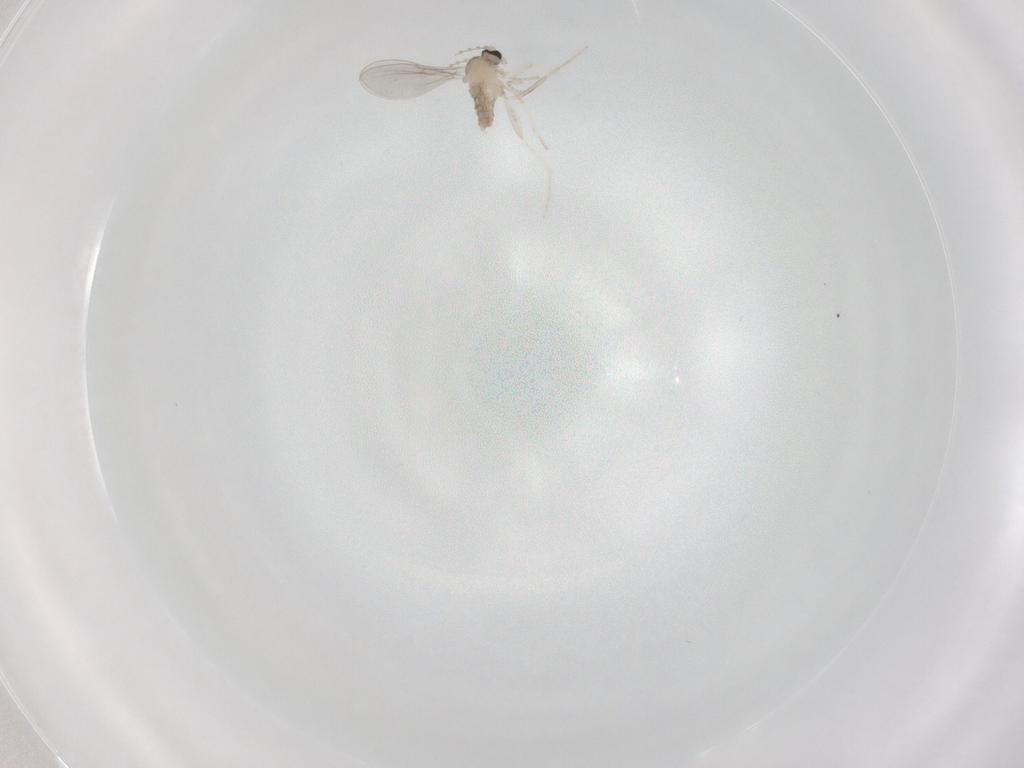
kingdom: Animalia
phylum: Arthropoda
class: Insecta
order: Diptera
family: Cecidomyiidae
